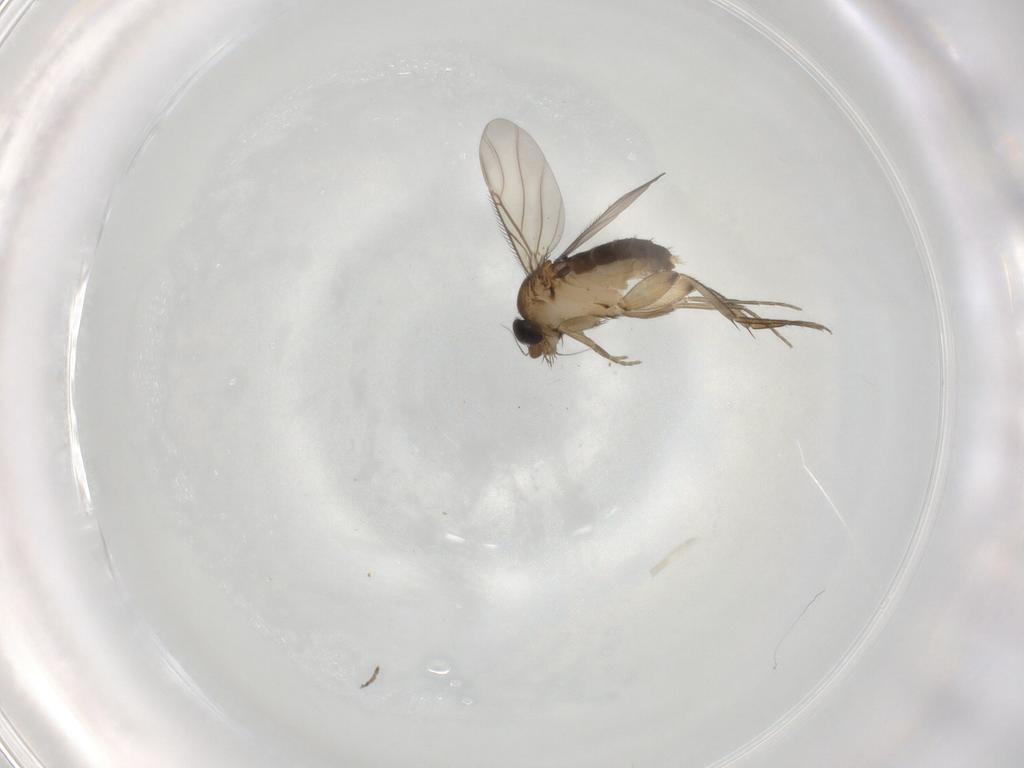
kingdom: Animalia
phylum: Arthropoda
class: Insecta
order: Diptera
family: Phoridae
